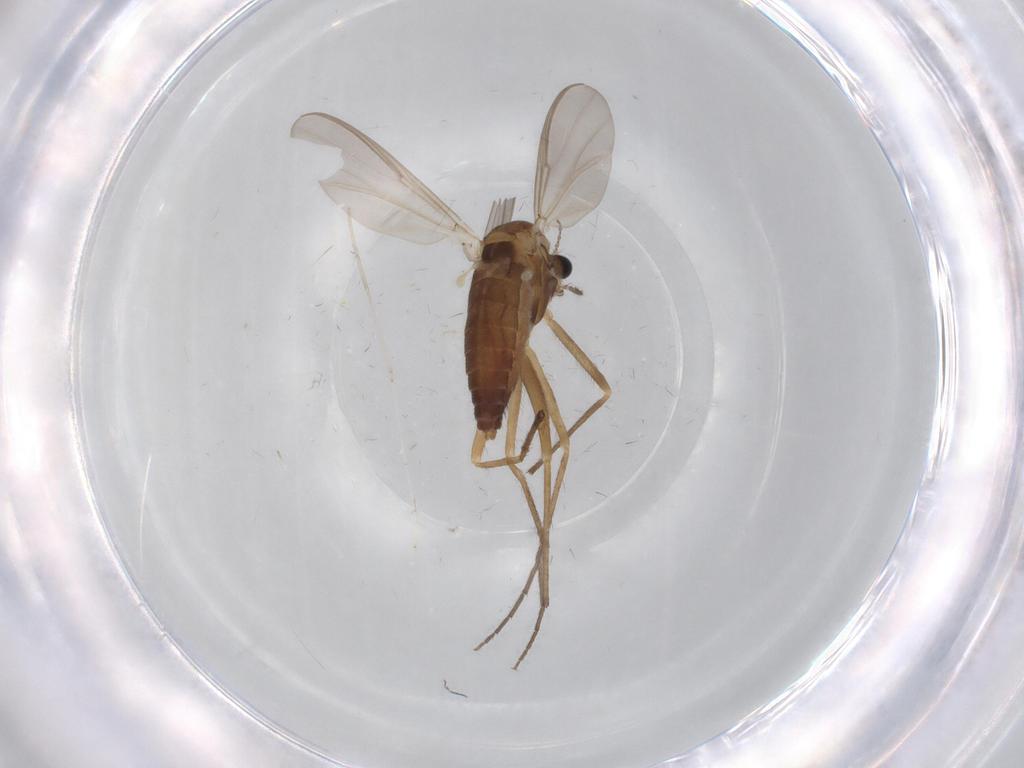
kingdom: Animalia
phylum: Arthropoda
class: Insecta
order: Diptera
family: Chironomidae
